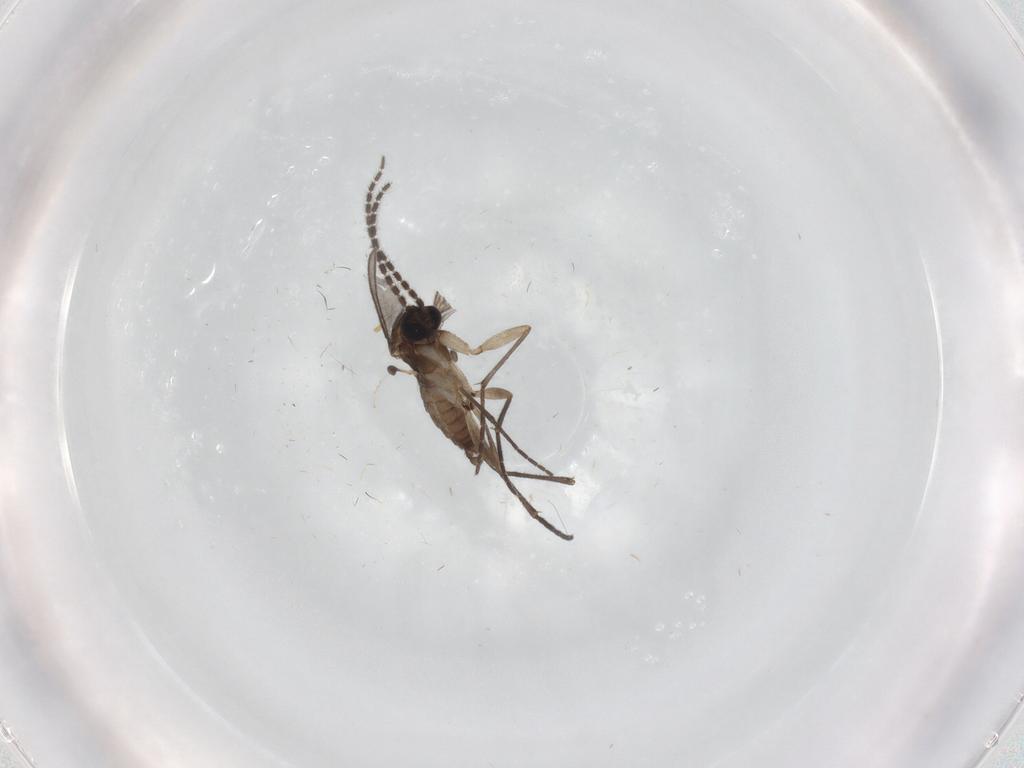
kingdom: Animalia
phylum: Arthropoda
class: Insecta
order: Diptera
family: Sciaridae
